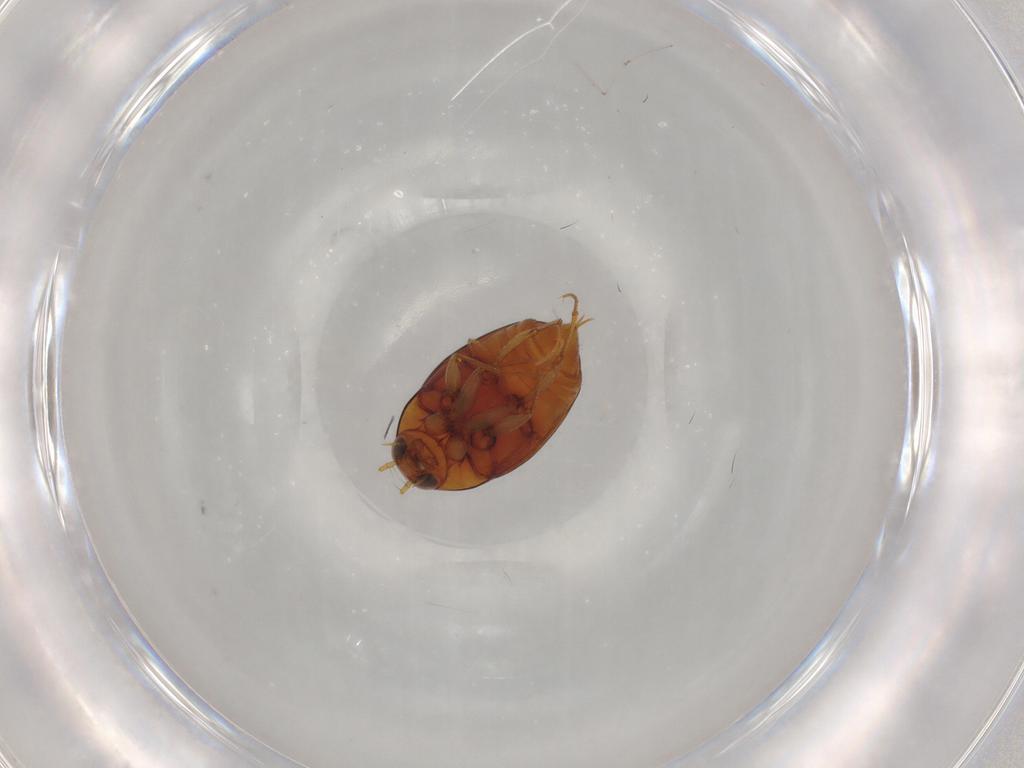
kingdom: Animalia
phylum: Arthropoda
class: Insecta
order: Coleoptera
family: Staphylinidae
